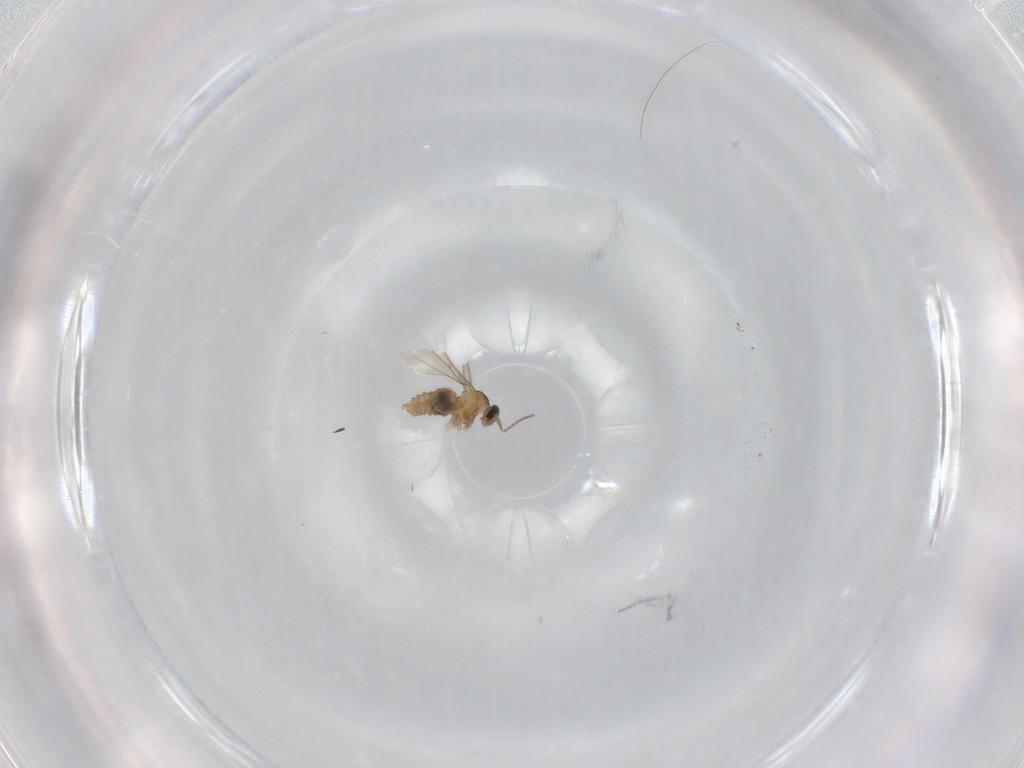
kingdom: Animalia
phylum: Arthropoda
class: Insecta
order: Diptera
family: Cecidomyiidae
